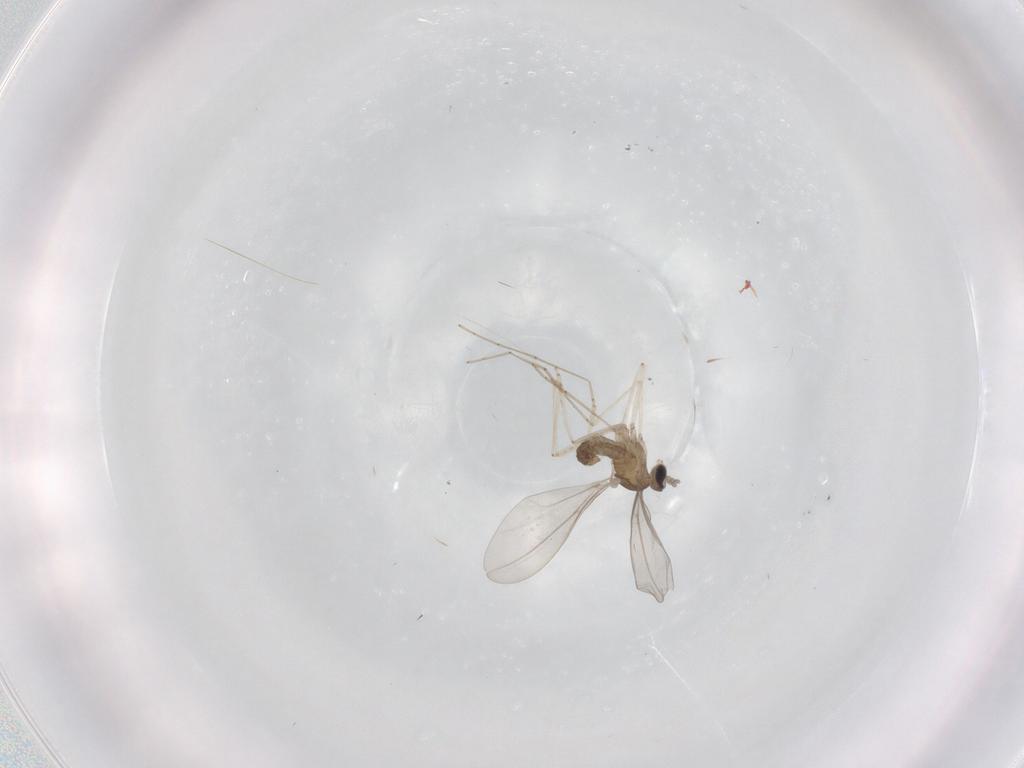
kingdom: Animalia
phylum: Arthropoda
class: Insecta
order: Diptera
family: Cecidomyiidae
